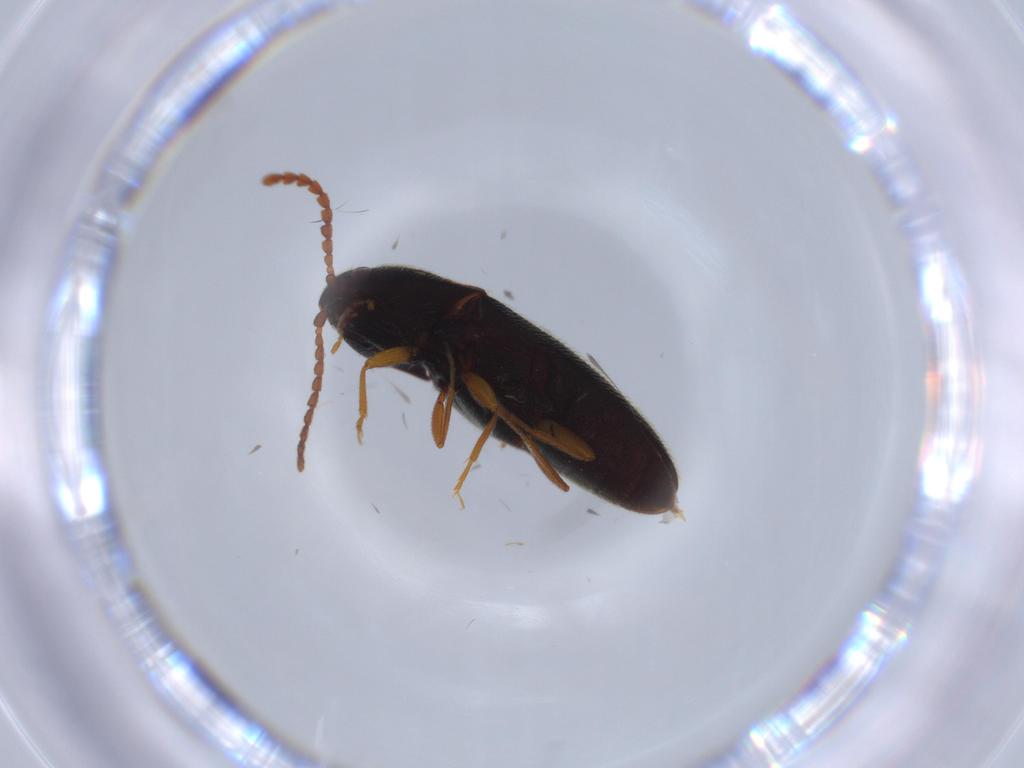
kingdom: Animalia
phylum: Arthropoda
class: Insecta
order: Coleoptera
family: Elateridae
